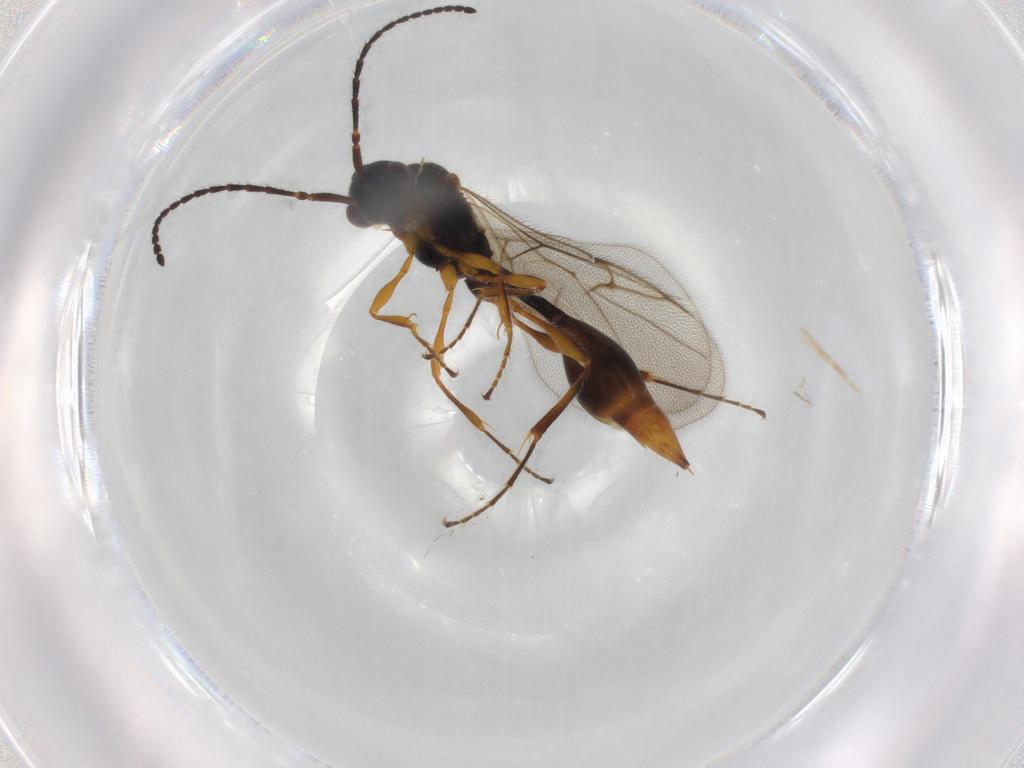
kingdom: Animalia
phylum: Arthropoda
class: Insecta
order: Hymenoptera
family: Diapriidae
